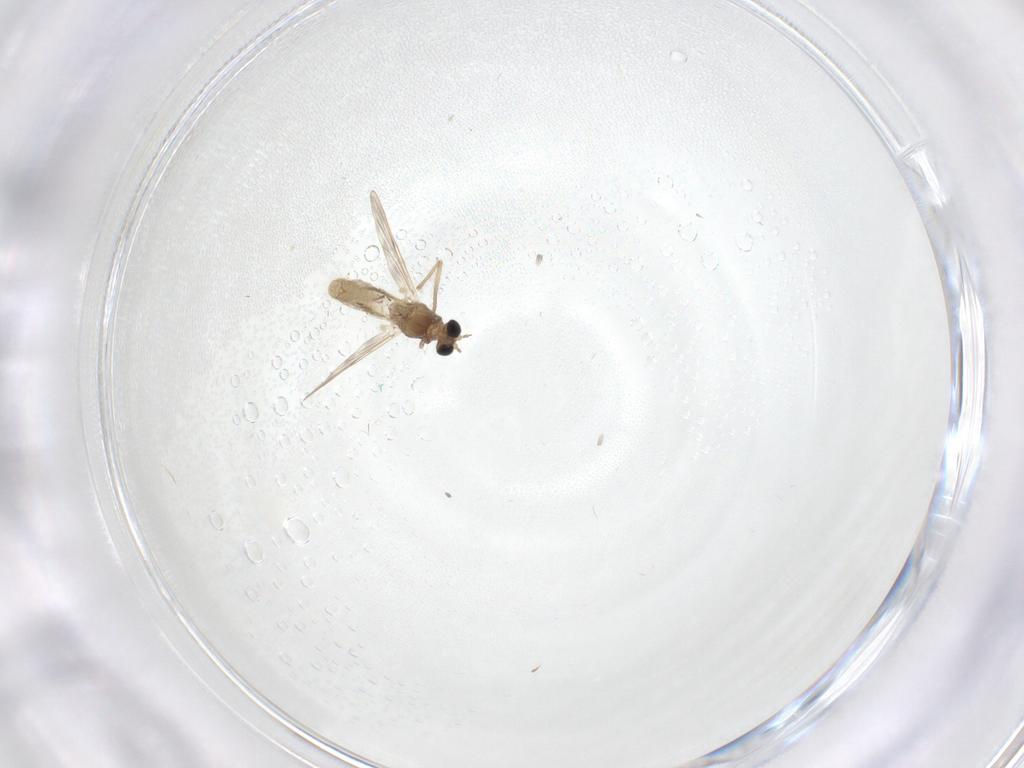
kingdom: Animalia
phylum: Arthropoda
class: Insecta
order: Diptera
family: Chironomidae
